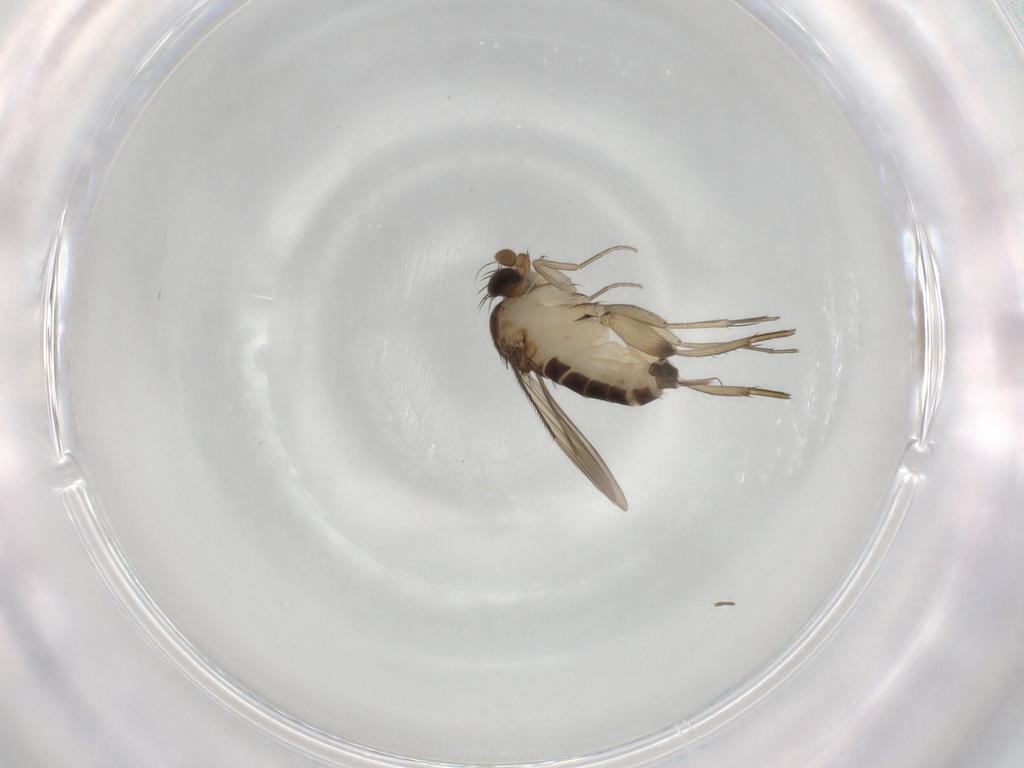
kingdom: Animalia
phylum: Arthropoda
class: Insecta
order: Diptera
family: Phoridae
